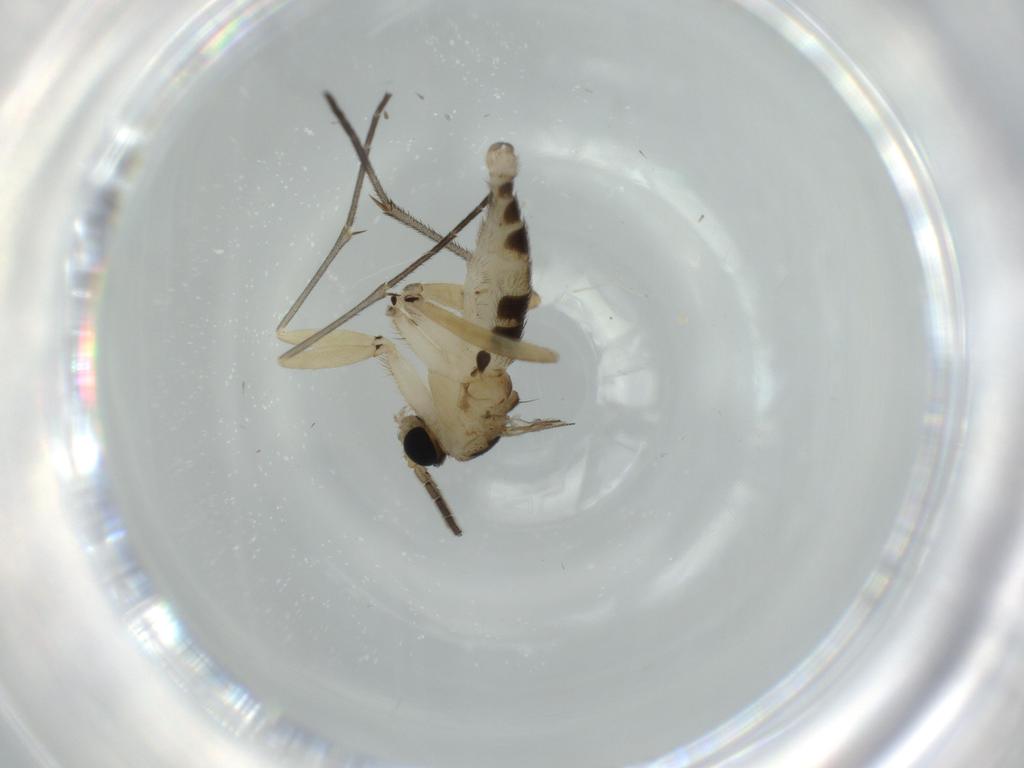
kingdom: Animalia
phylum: Arthropoda
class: Insecta
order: Diptera
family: Sciaridae
